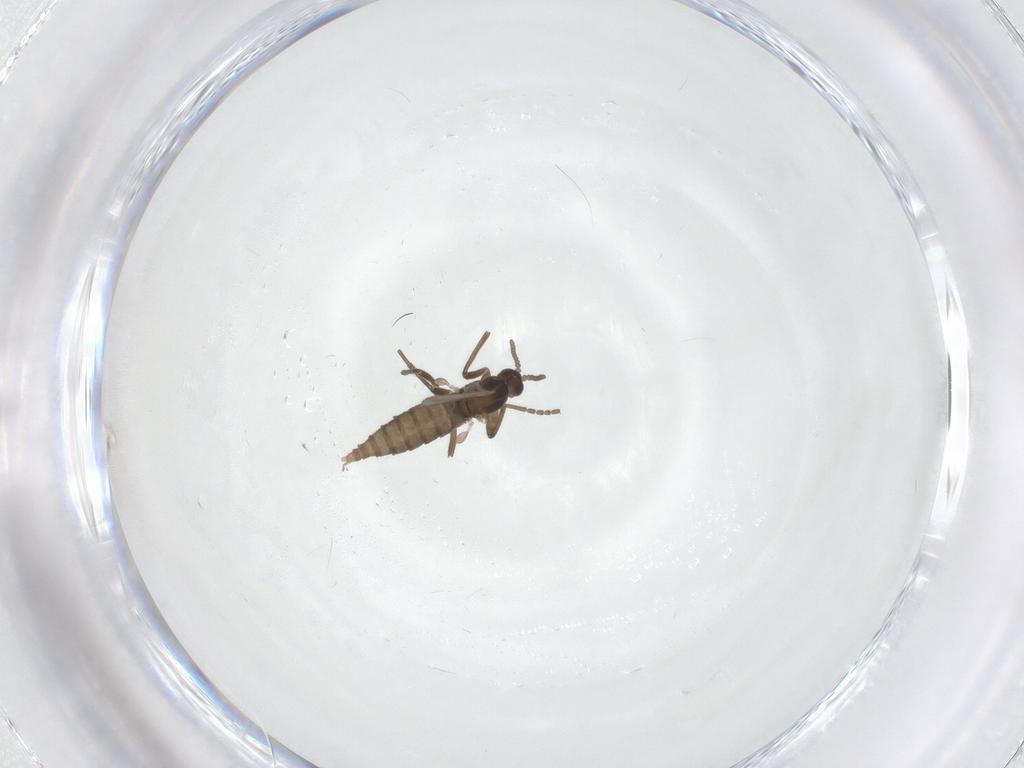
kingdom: Animalia
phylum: Arthropoda
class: Insecta
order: Diptera
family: Cecidomyiidae
